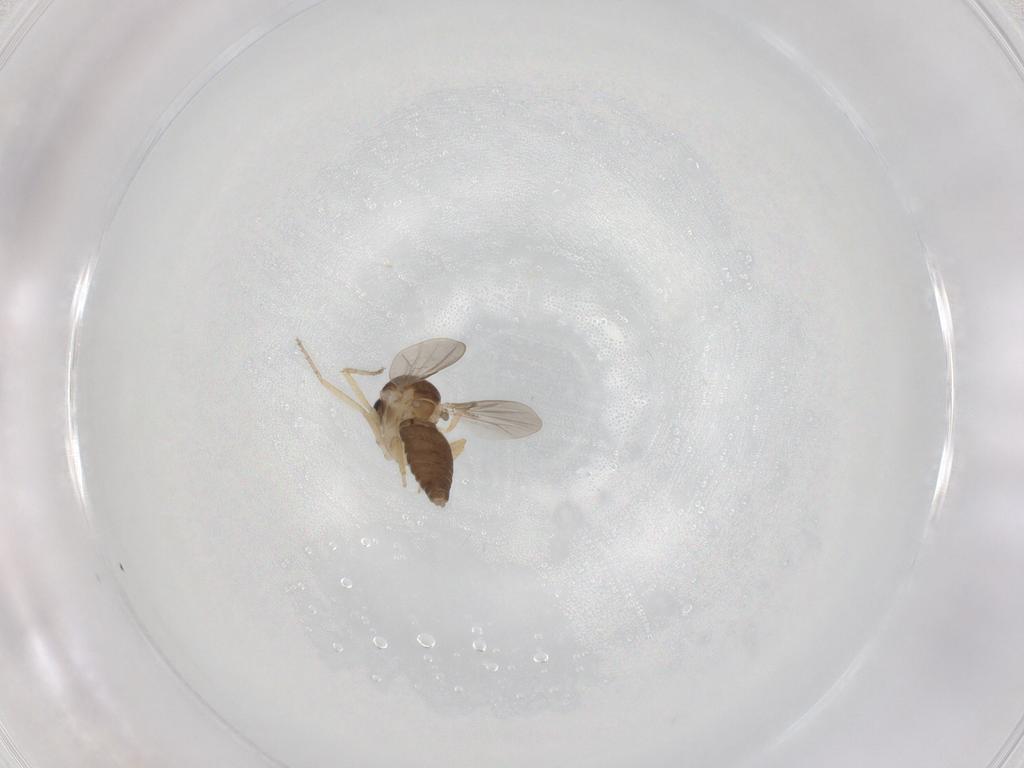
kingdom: Animalia
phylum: Arthropoda
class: Insecta
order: Diptera
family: Ceratopogonidae
